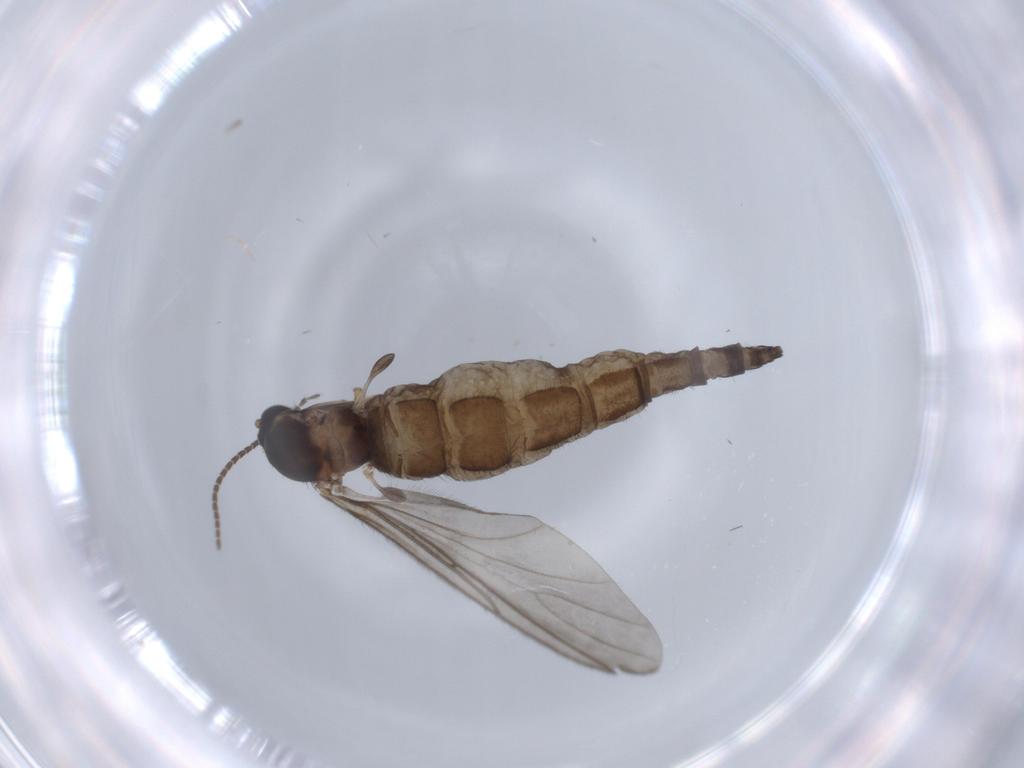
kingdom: Animalia
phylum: Arthropoda
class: Insecta
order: Diptera
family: Sciaridae
